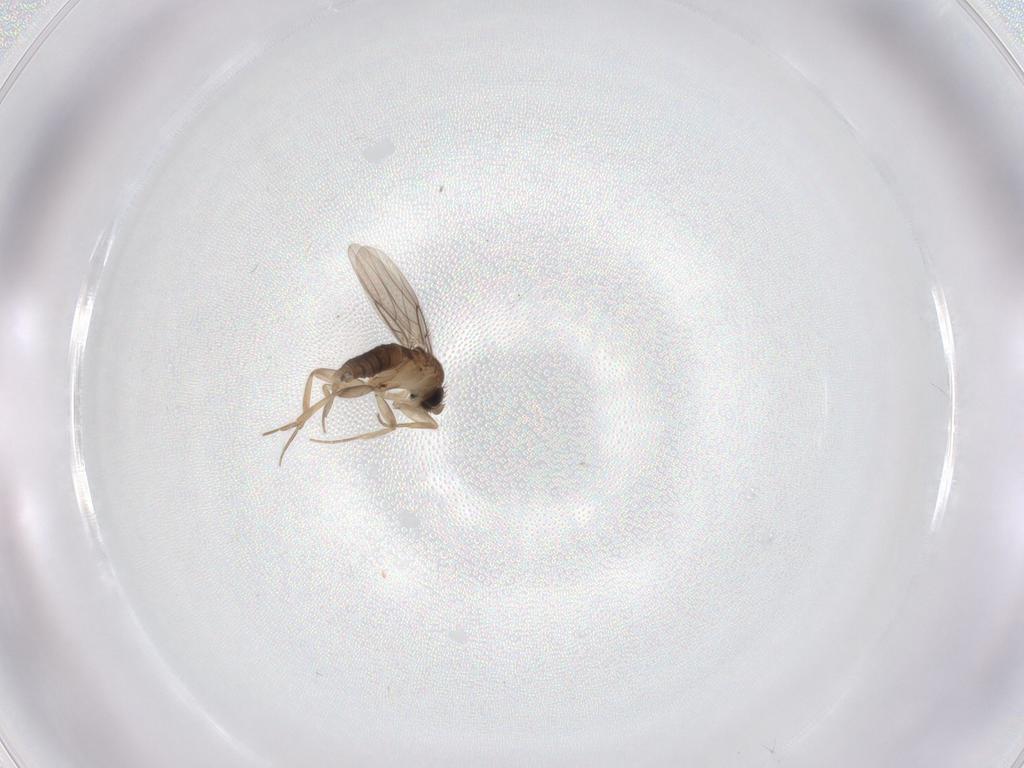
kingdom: Animalia
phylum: Arthropoda
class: Insecta
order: Diptera
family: Phoridae
